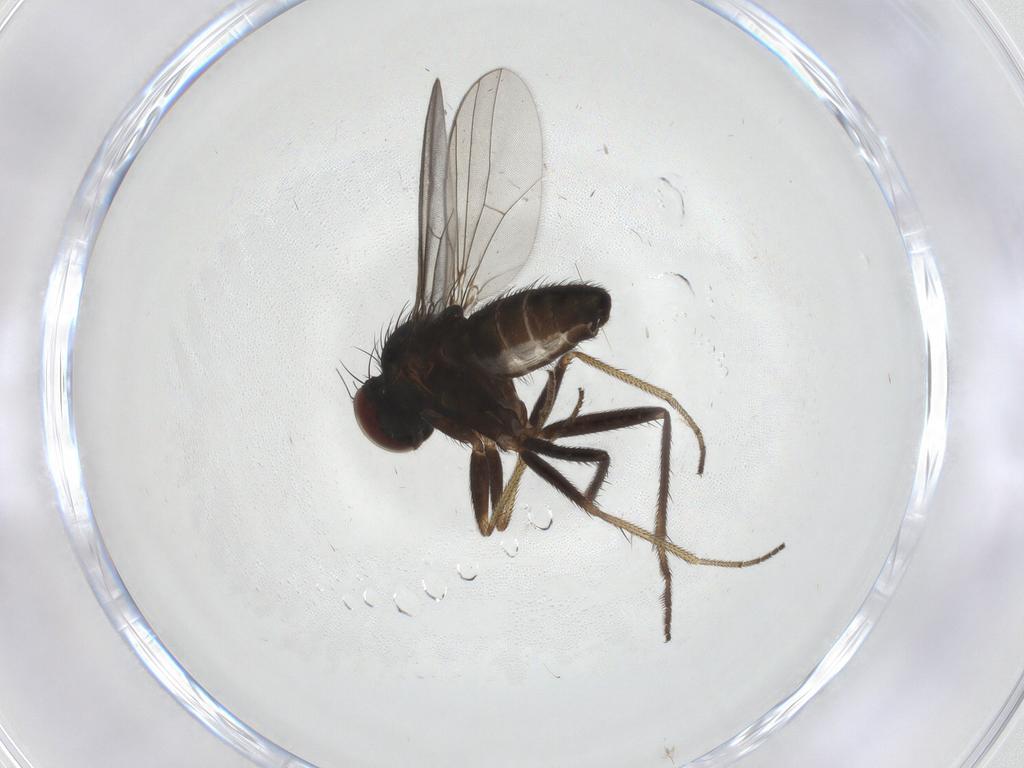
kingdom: Animalia
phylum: Arthropoda
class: Insecta
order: Diptera
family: Dolichopodidae
